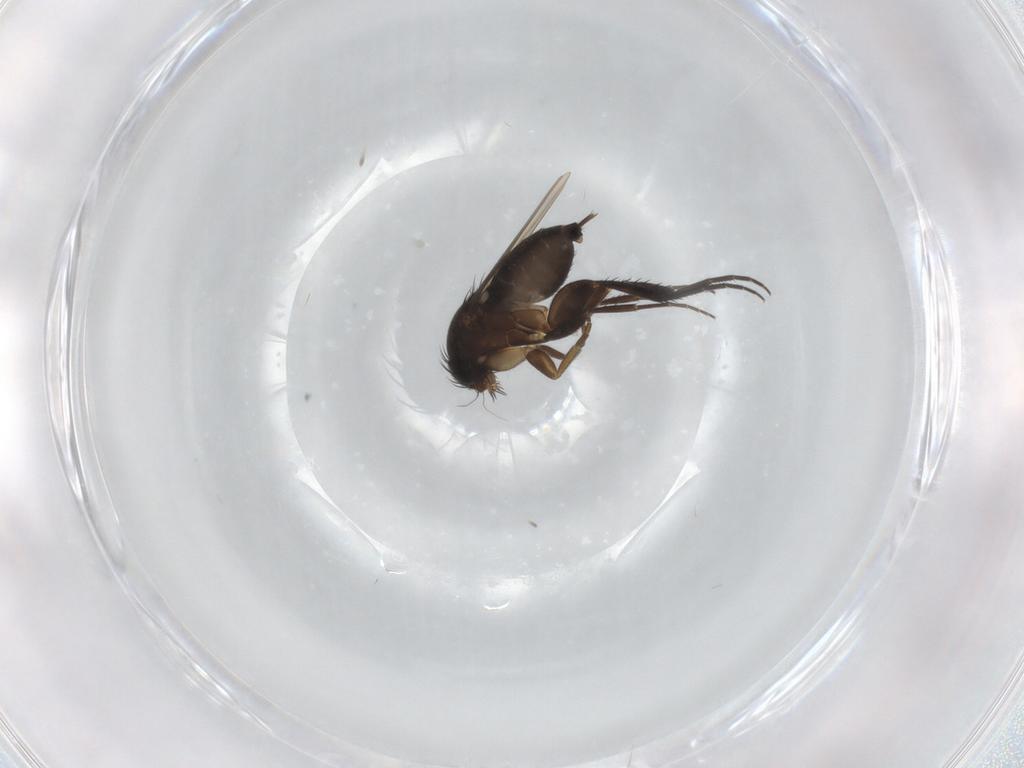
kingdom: Animalia
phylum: Arthropoda
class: Insecta
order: Diptera
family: Phoridae
